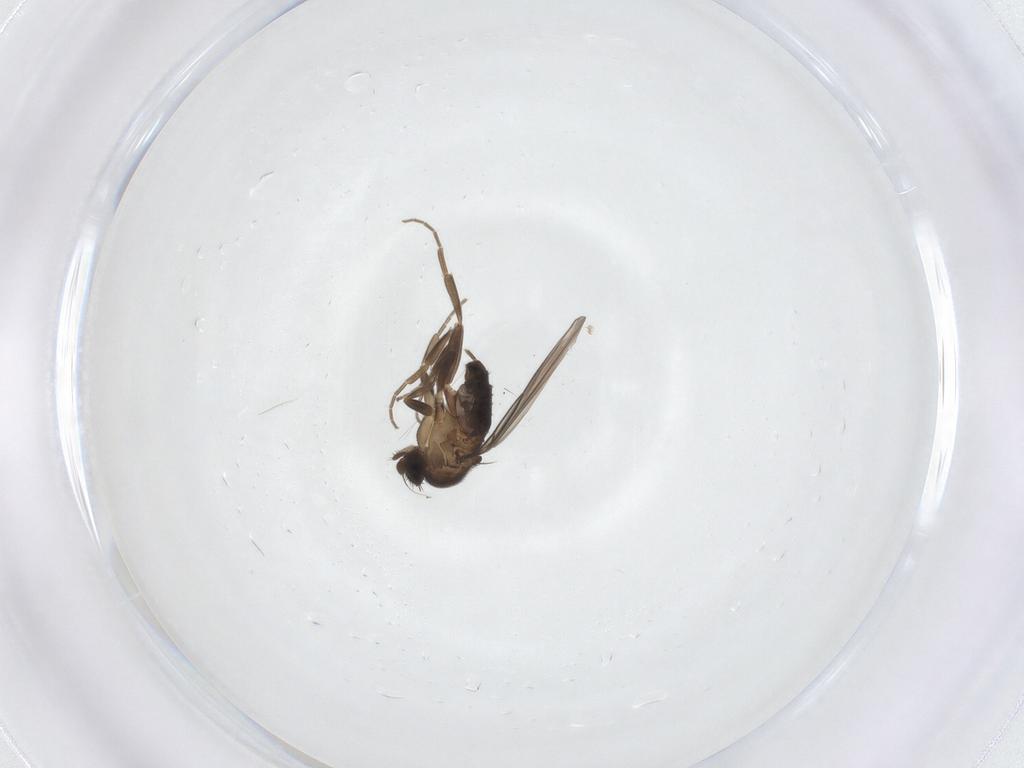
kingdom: Animalia
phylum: Arthropoda
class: Insecta
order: Diptera
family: Phoridae
